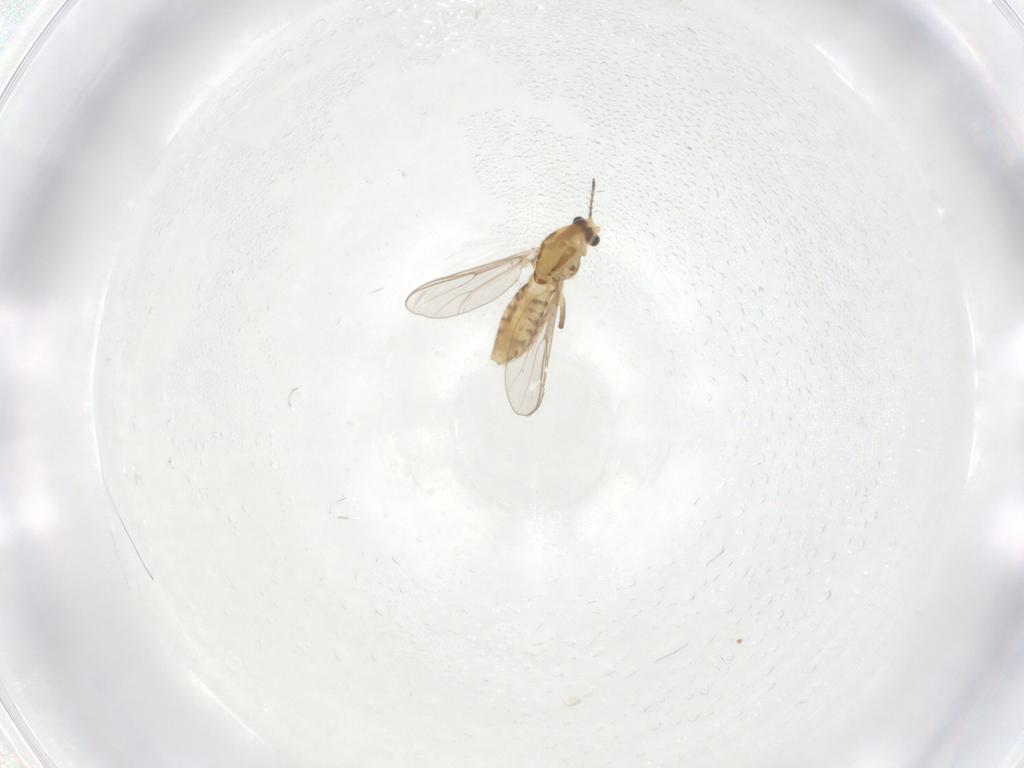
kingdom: Animalia
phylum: Arthropoda
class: Insecta
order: Diptera
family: Chironomidae
